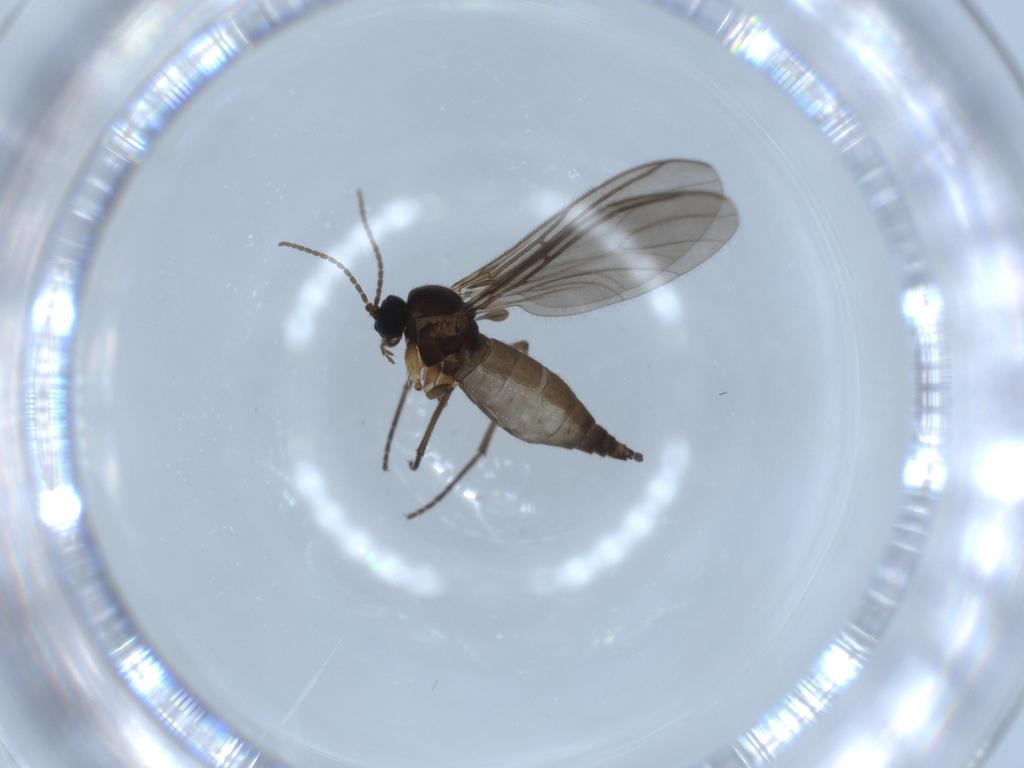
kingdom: Animalia
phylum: Arthropoda
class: Insecta
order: Diptera
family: Sciaridae
